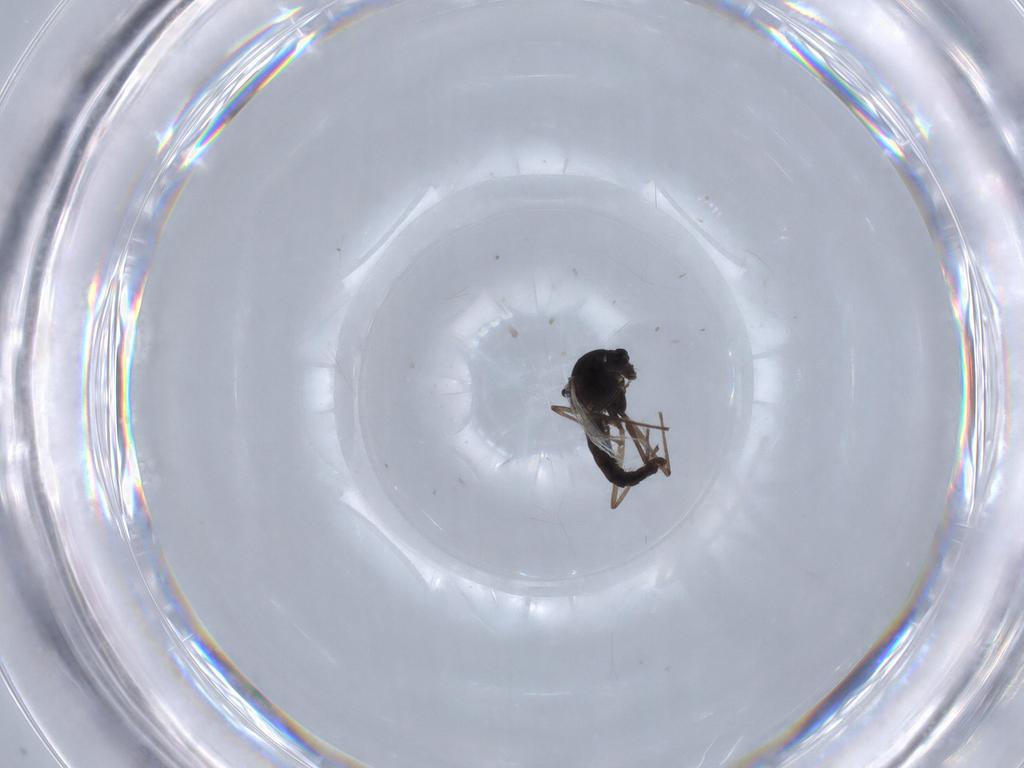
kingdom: Animalia
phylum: Arthropoda
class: Insecta
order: Diptera
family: Chironomidae
